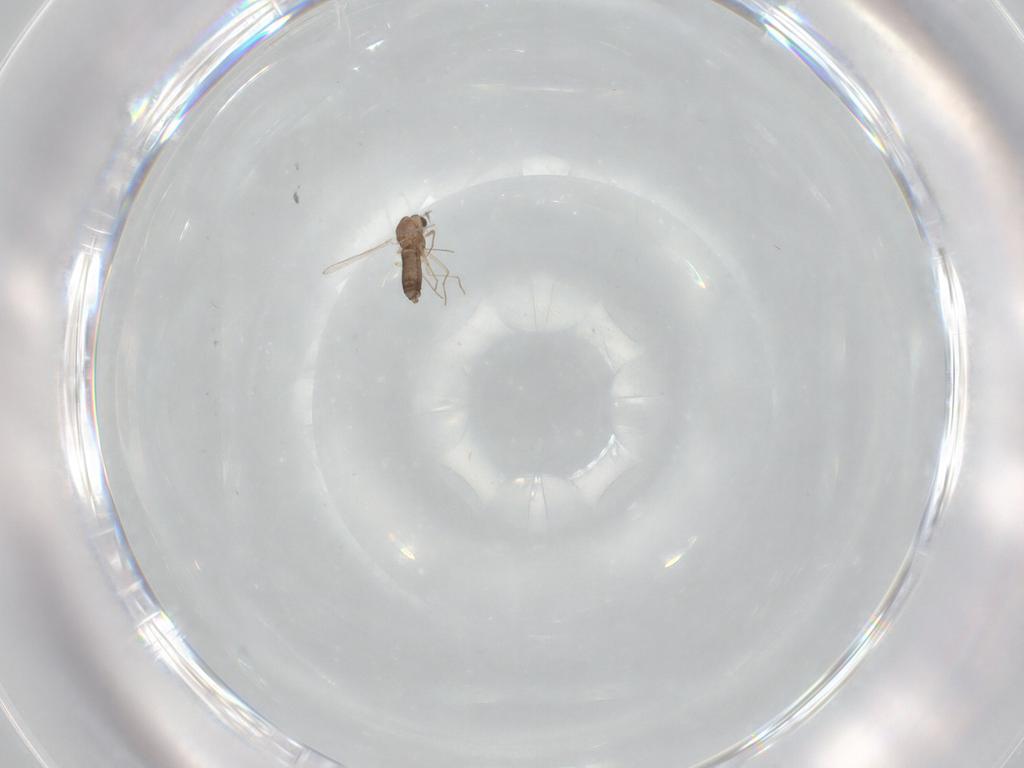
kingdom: Animalia
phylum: Arthropoda
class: Insecta
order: Diptera
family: Chironomidae
